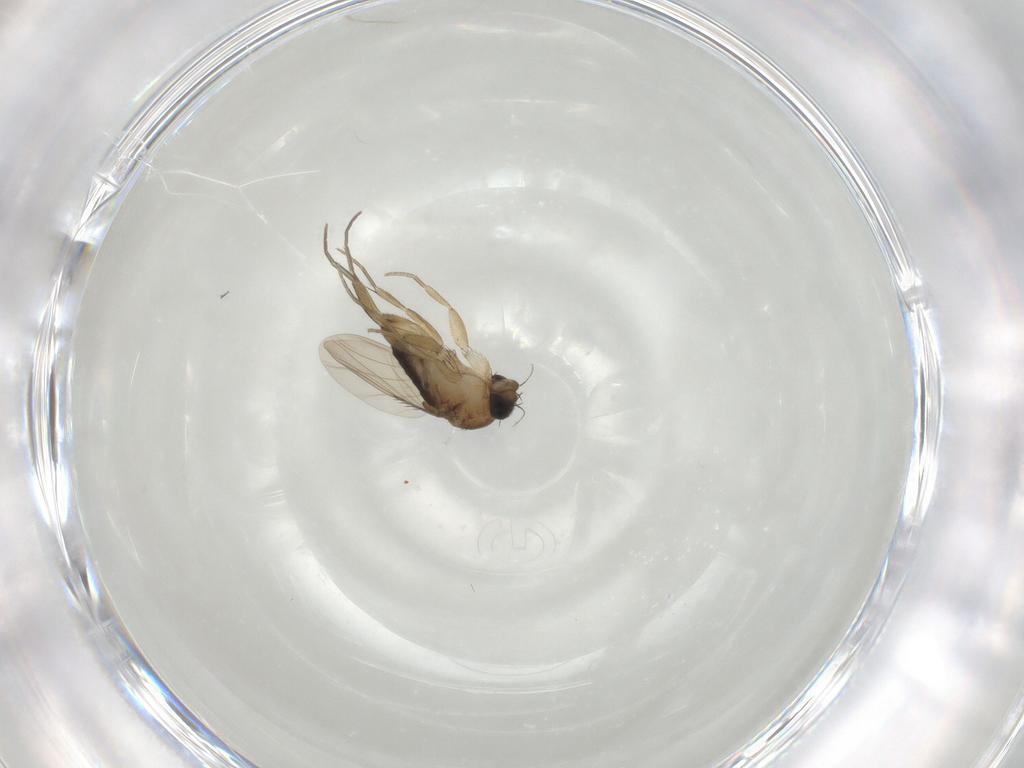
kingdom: Animalia
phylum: Arthropoda
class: Insecta
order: Diptera
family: Phoridae
